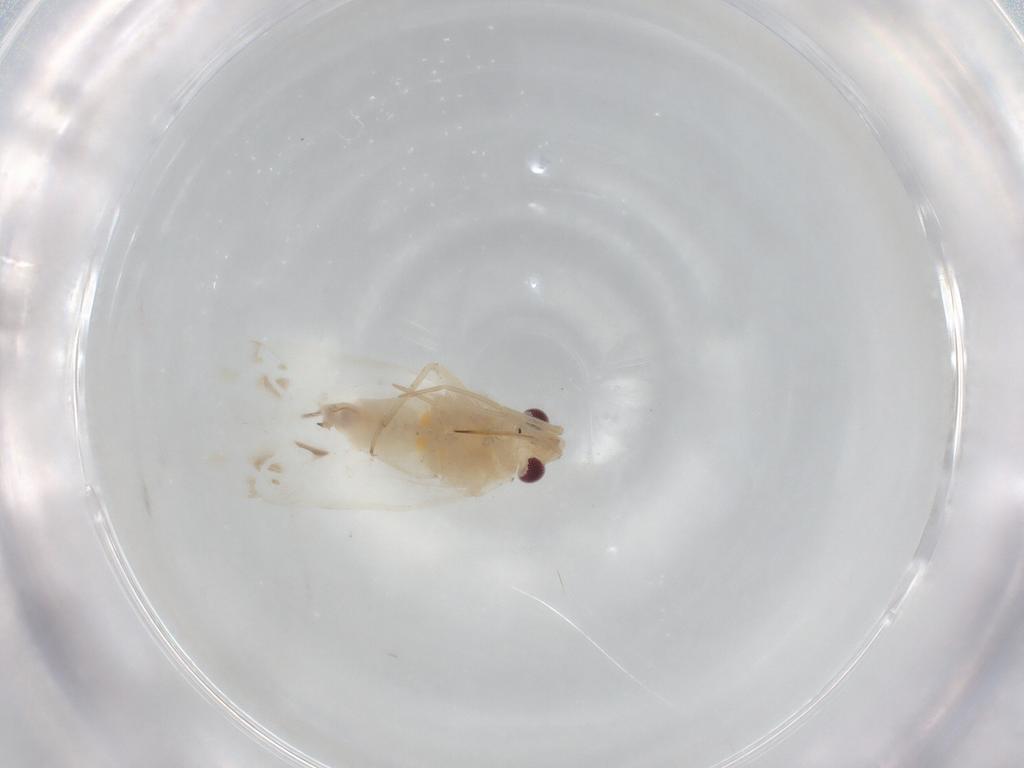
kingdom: Animalia
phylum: Arthropoda
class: Insecta
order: Hemiptera
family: Miridae
